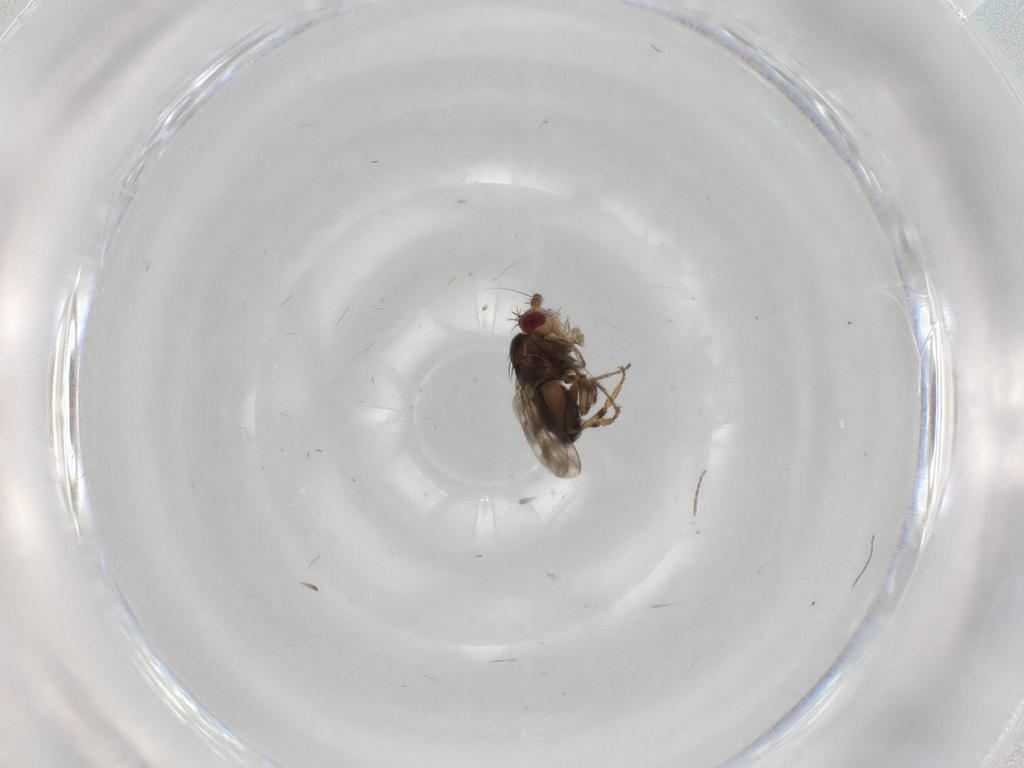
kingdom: Animalia
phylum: Arthropoda
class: Insecta
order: Diptera
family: Sphaeroceridae
